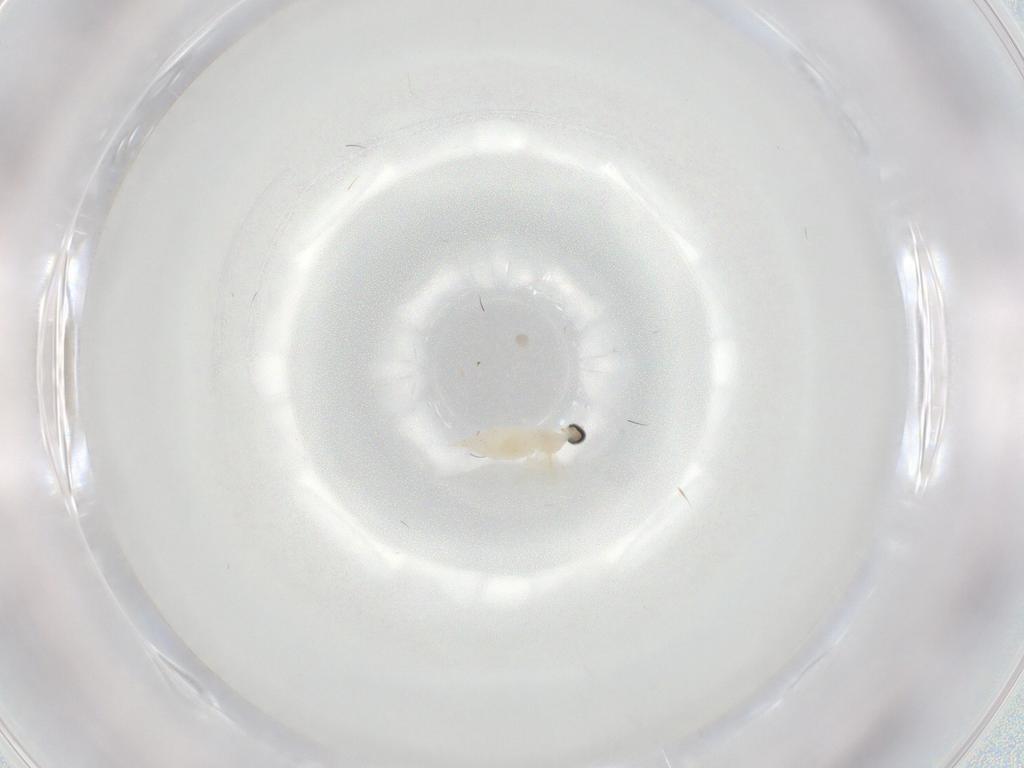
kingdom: Animalia
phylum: Arthropoda
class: Insecta
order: Diptera
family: Cecidomyiidae
